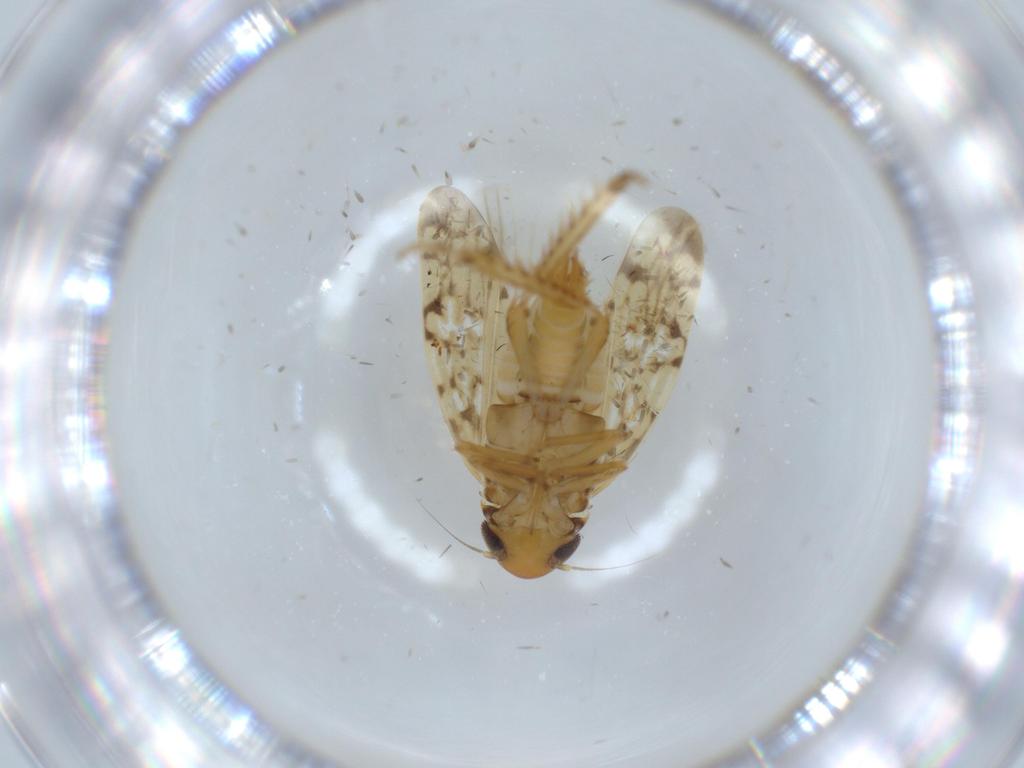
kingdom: Animalia
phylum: Arthropoda
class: Insecta
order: Hemiptera
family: Cicadellidae
